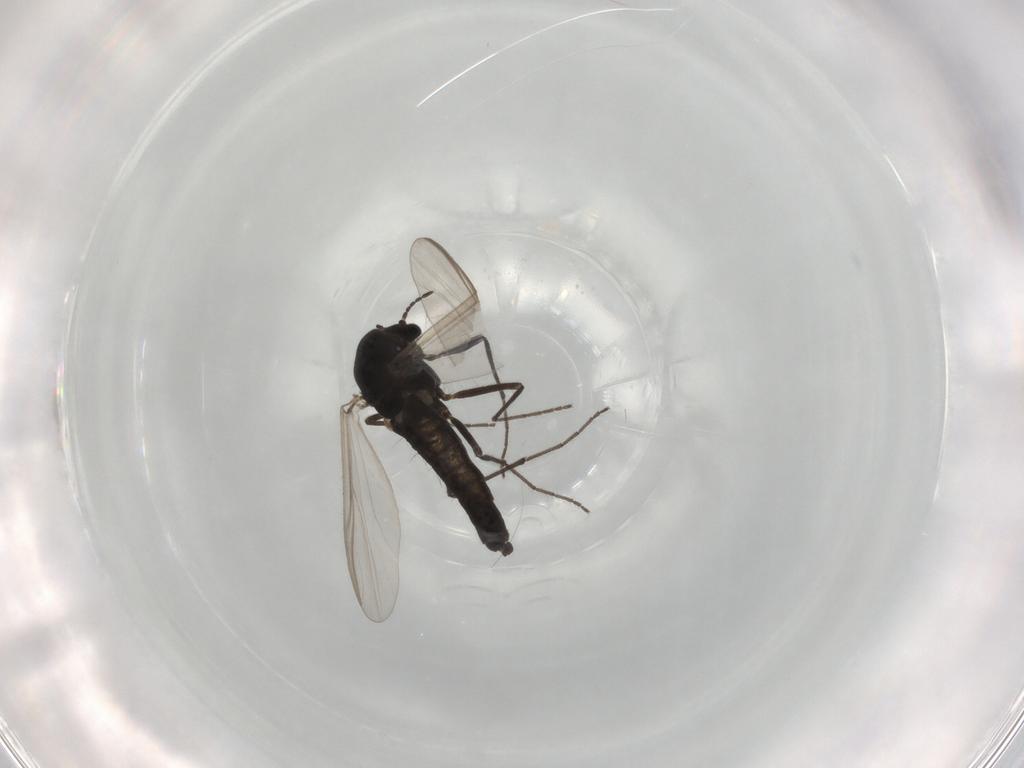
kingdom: Animalia
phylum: Arthropoda
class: Insecta
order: Diptera
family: Chironomidae
